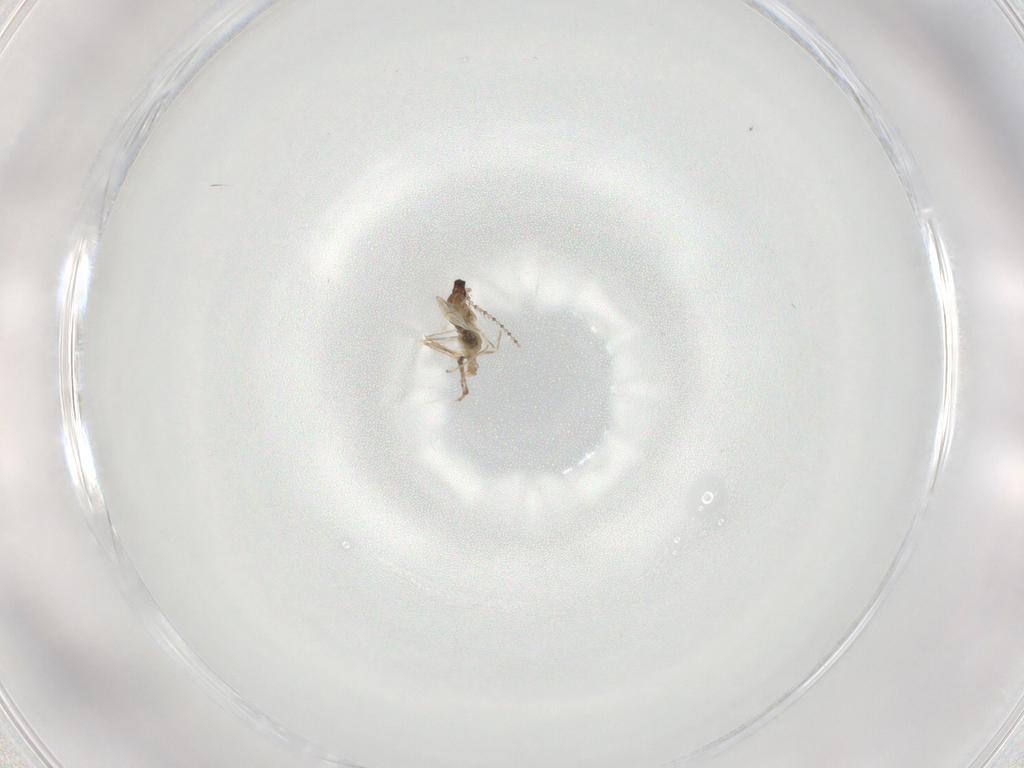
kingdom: Animalia
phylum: Arthropoda
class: Insecta
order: Diptera
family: Cecidomyiidae
